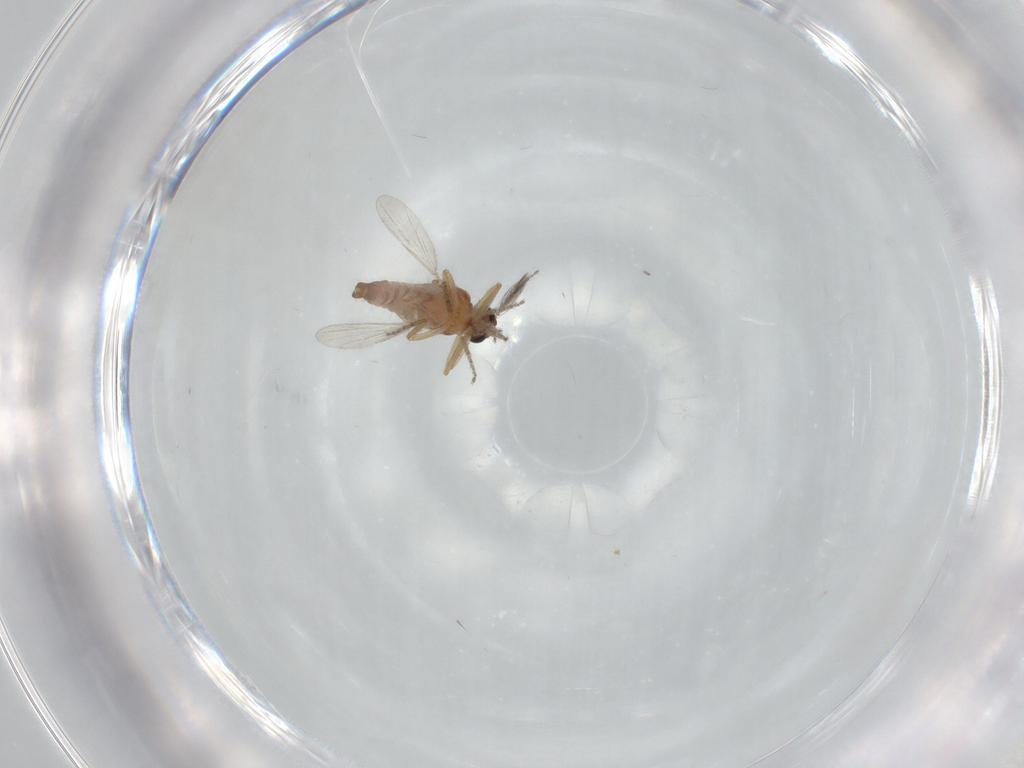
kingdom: Animalia
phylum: Arthropoda
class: Insecta
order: Diptera
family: Ceratopogonidae
